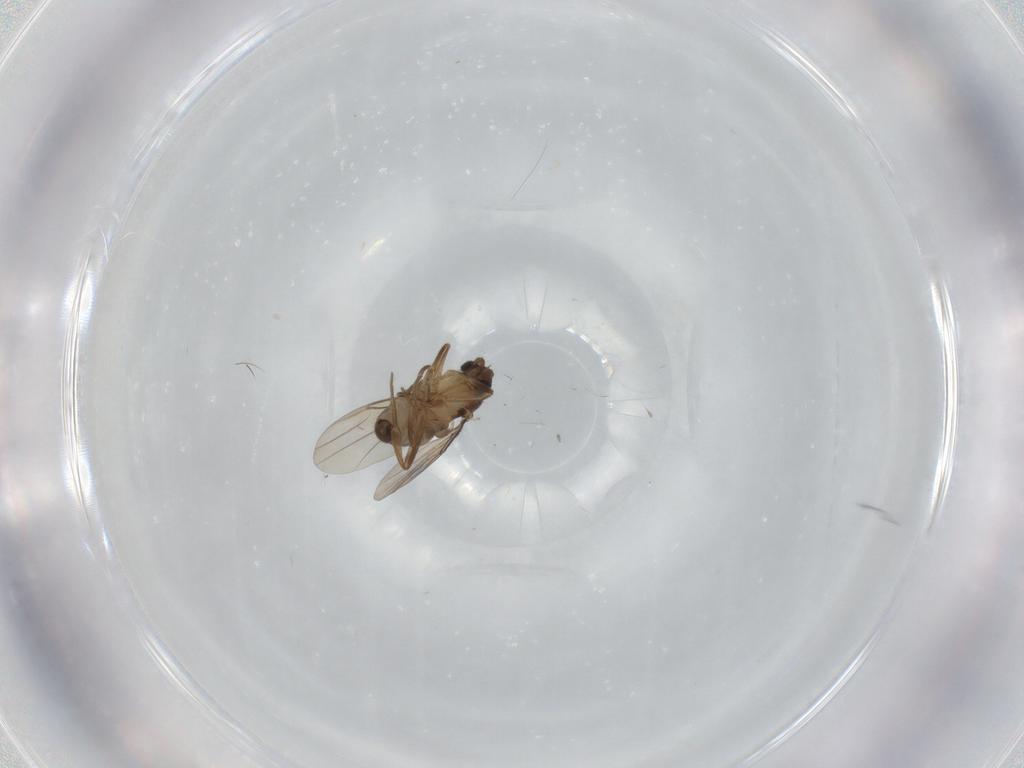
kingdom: Animalia
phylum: Arthropoda
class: Insecta
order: Diptera
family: Phoridae
